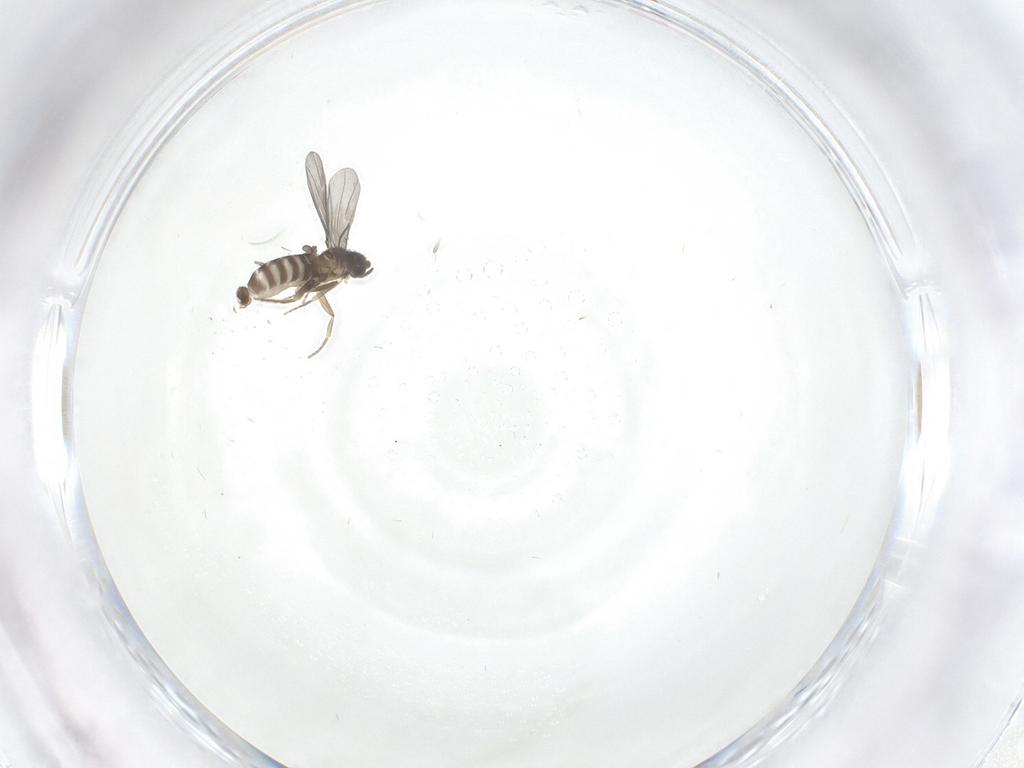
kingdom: Animalia
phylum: Arthropoda
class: Insecta
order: Diptera
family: Phoridae
